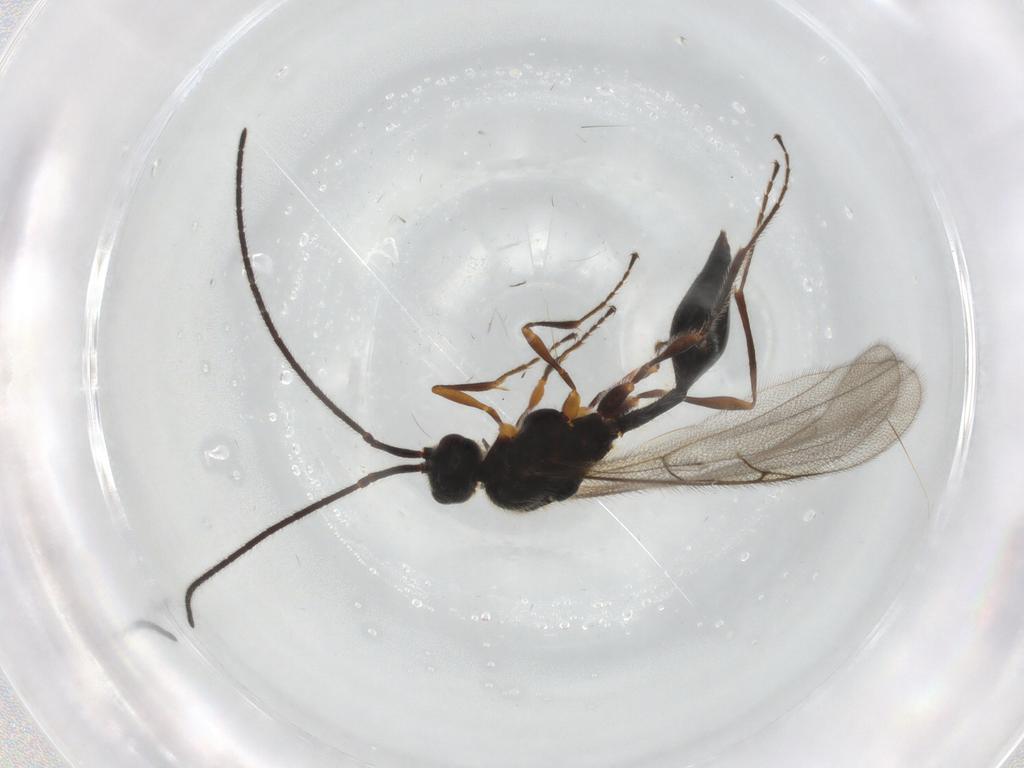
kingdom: Animalia
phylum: Arthropoda
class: Insecta
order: Hymenoptera
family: Diapriidae
